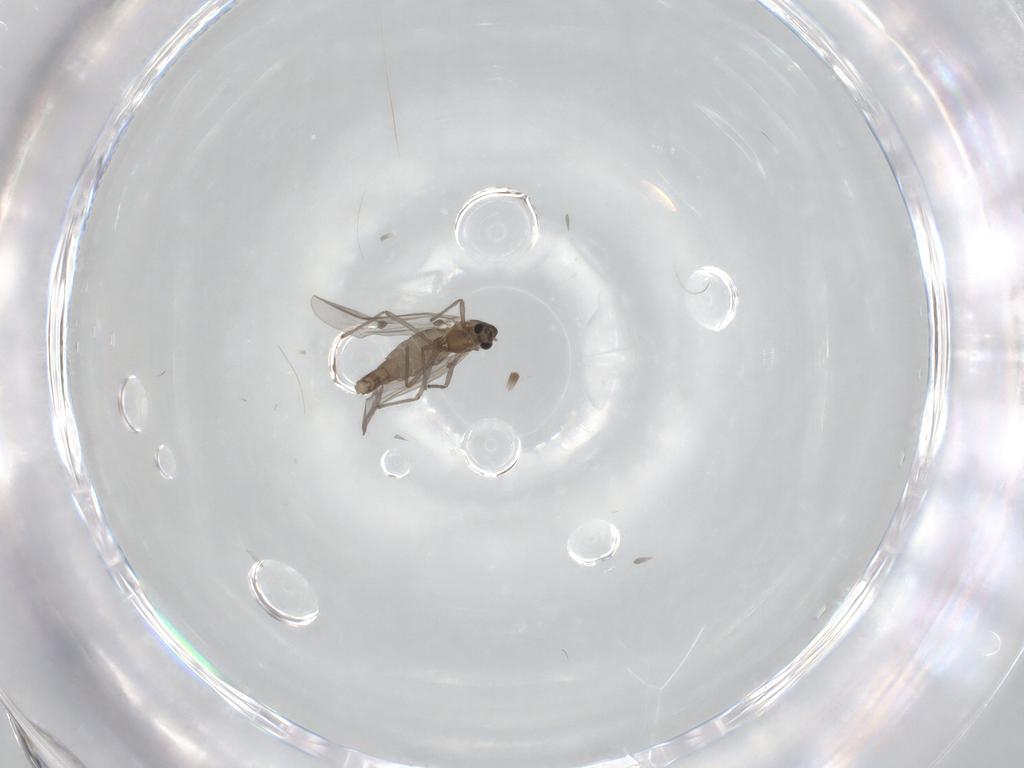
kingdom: Animalia
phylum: Arthropoda
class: Insecta
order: Diptera
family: Chironomidae
